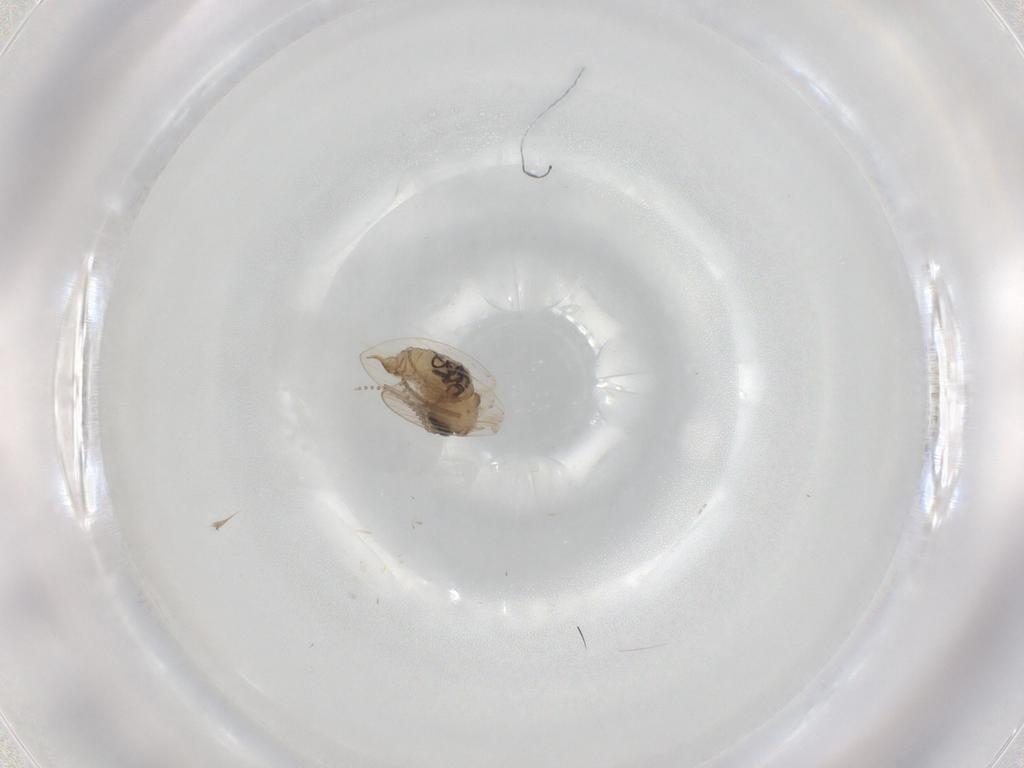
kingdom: Animalia
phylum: Arthropoda
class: Insecta
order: Diptera
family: Psychodidae
